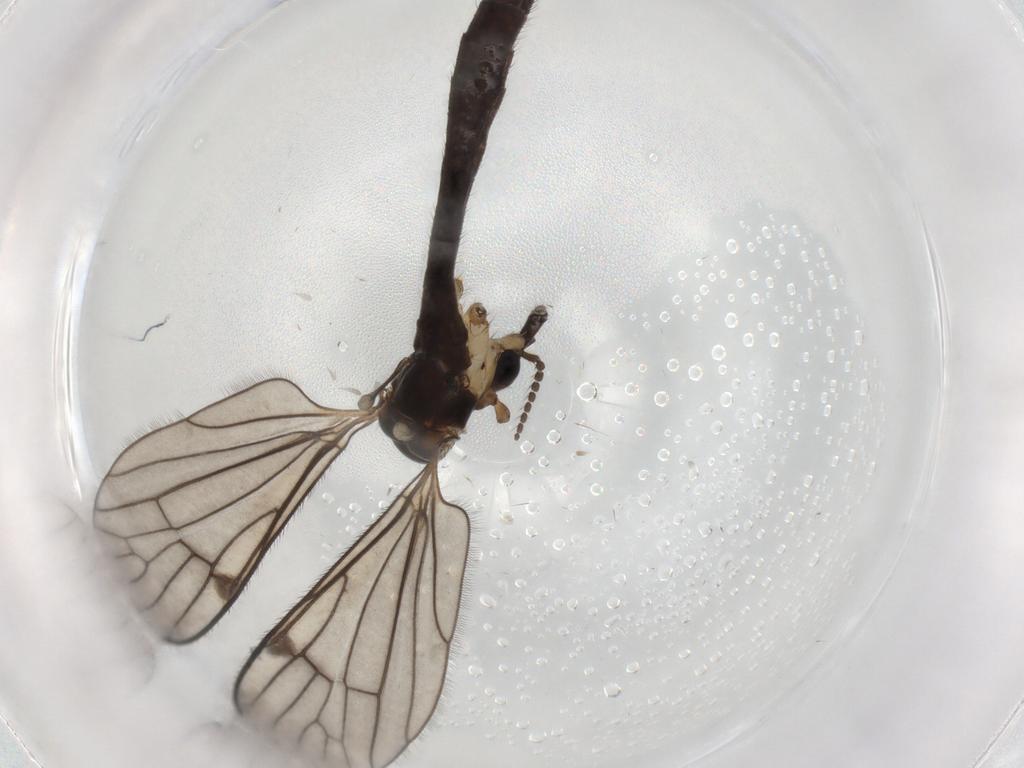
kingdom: Animalia
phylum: Arthropoda
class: Insecta
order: Diptera
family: Limoniidae
